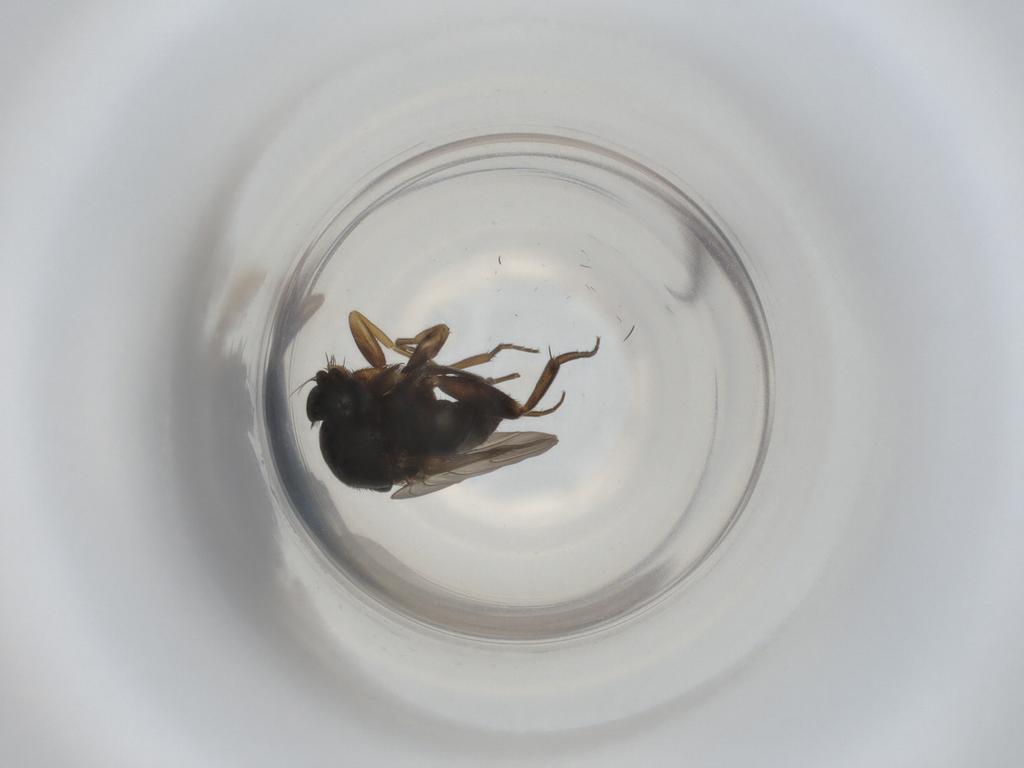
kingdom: Animalia
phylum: Arthropoda
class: Insecta
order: Diptera
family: Phoridae
